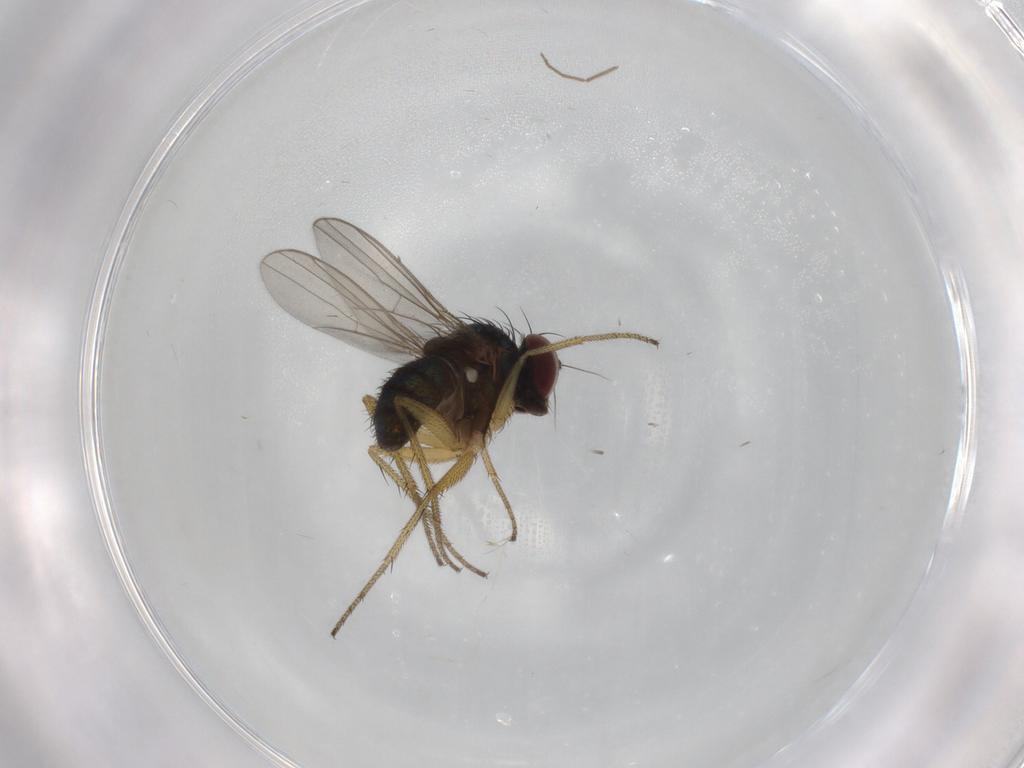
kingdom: Animalia
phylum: Arthropoda
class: Insecta
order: Diptera
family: Dolichopodidae
